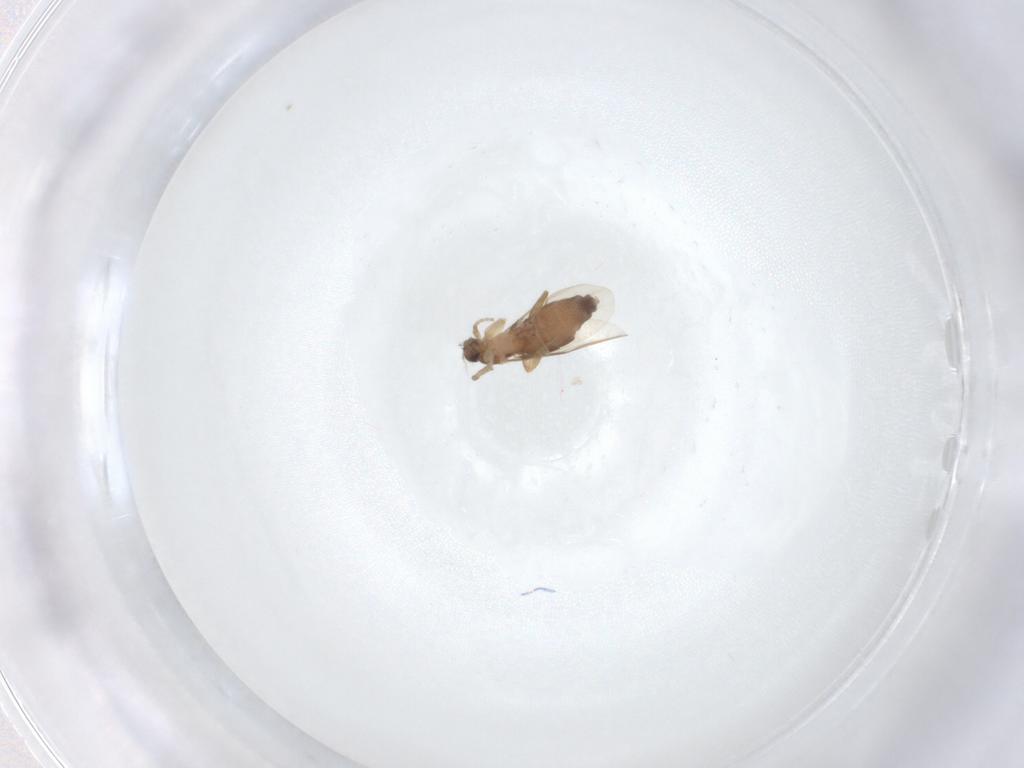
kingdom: Animalia
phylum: Arthropoda
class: Insecta
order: Diptera
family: Phoridae
